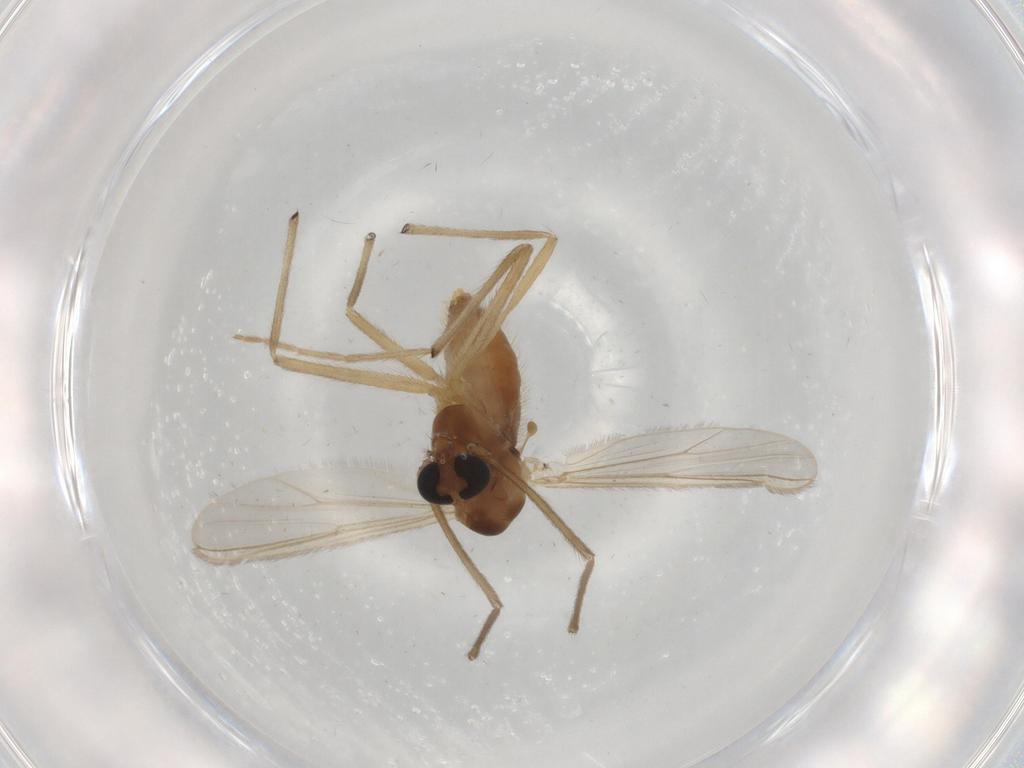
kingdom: Animalia
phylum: Arthropoda
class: Insecta
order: Diptera
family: Chironomidae
